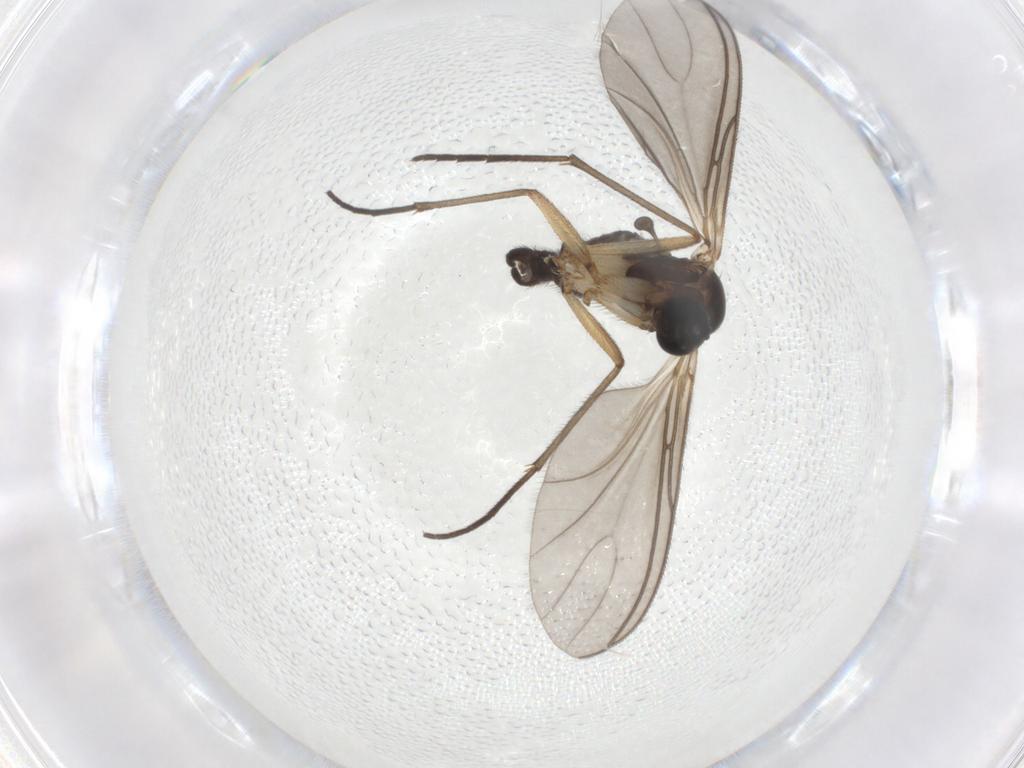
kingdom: Animalia
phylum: Arthropoda
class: Insecta
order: Diptera
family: Sciaridae
